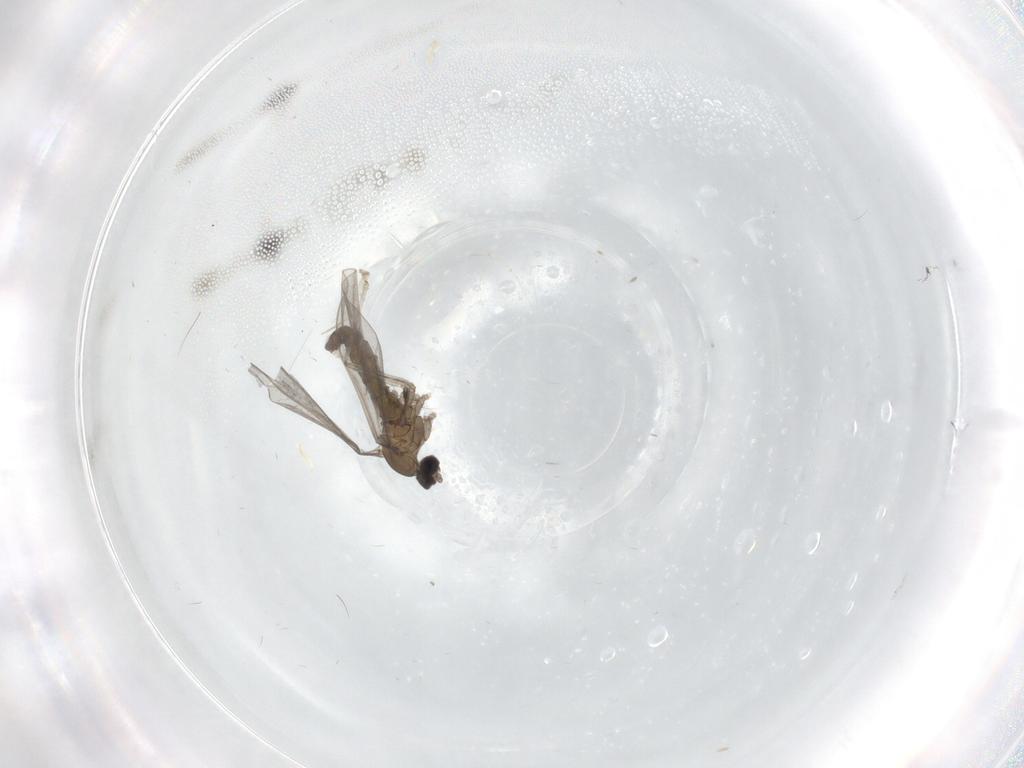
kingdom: Animalia
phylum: Arthropoda
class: Insecta
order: Diptera
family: Cecidomyiidae
